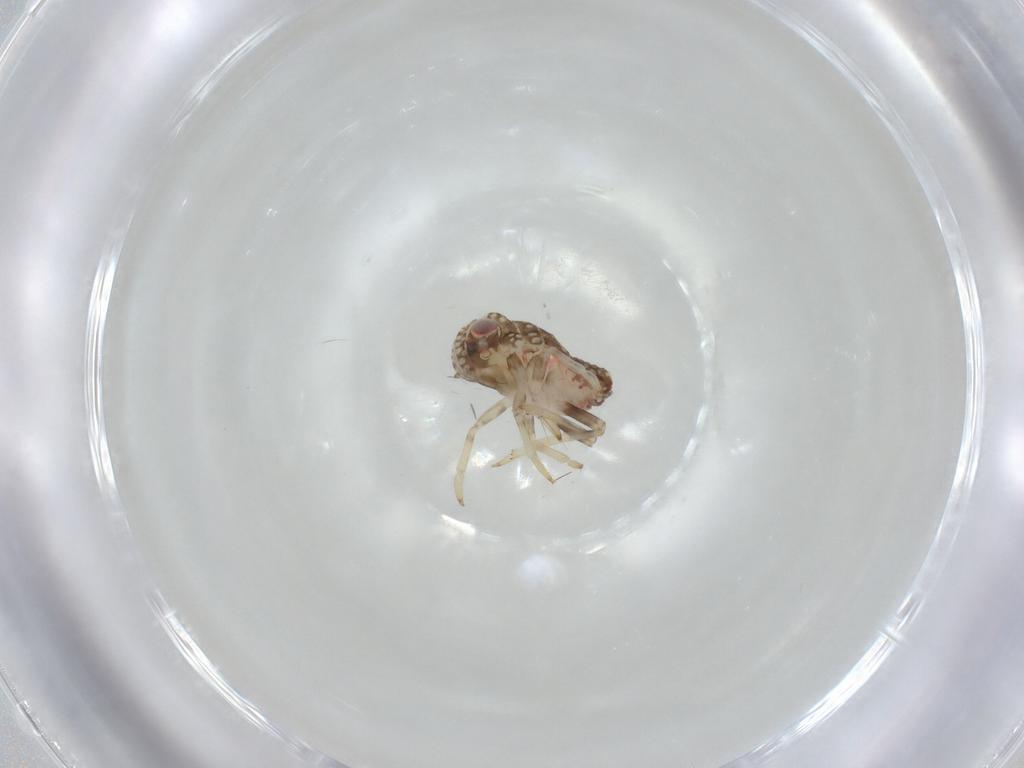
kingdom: Animalia
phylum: Arthropoda
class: Insecta
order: Hemiptera
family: Tropiduchidae
